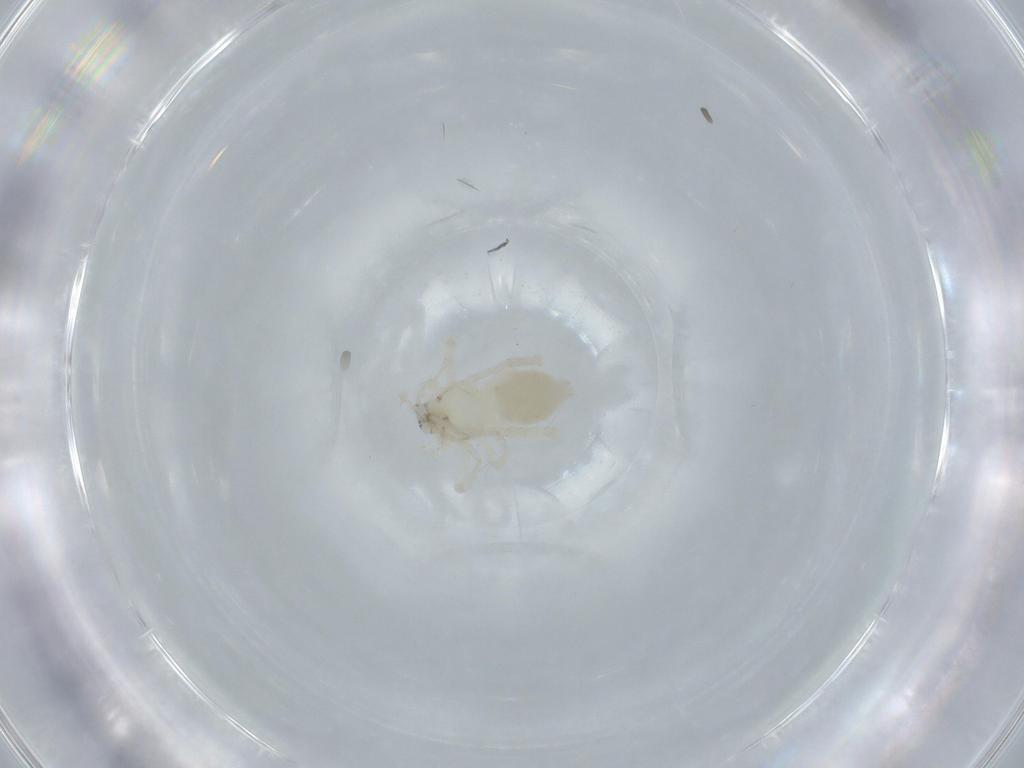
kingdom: Animalia
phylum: Arthropoda
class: Arachnida
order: Araneae
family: Anyphaenidae
